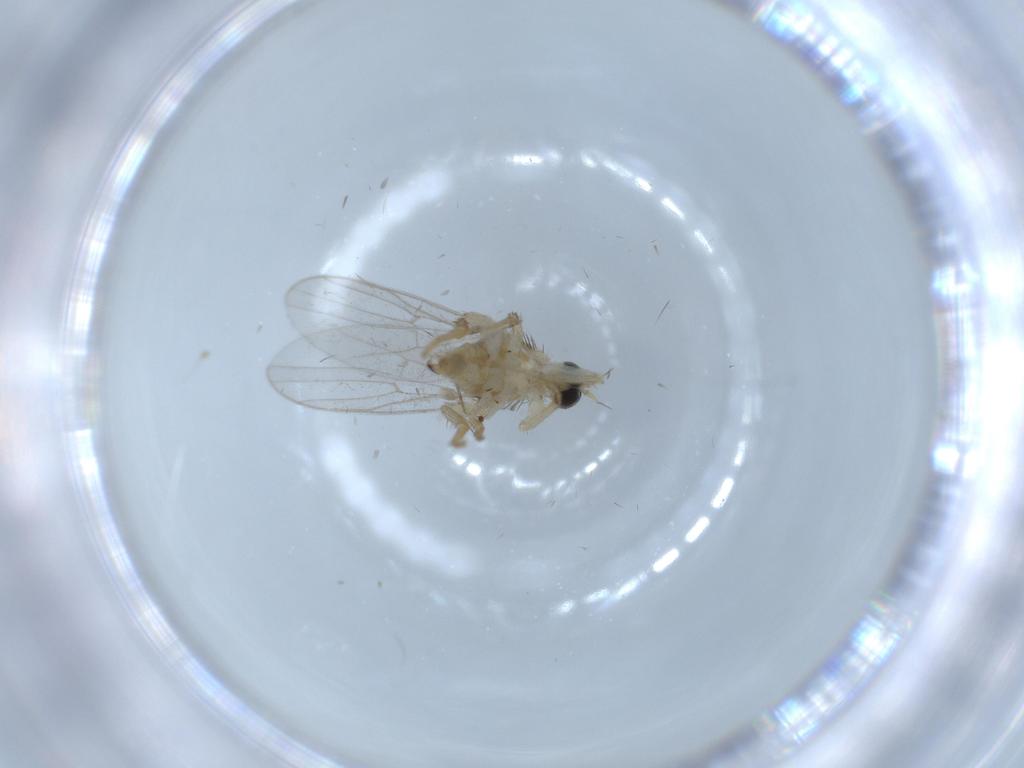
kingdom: Animalia
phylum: Arthropoda
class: Insecta
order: Diptera
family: Hybotidae
